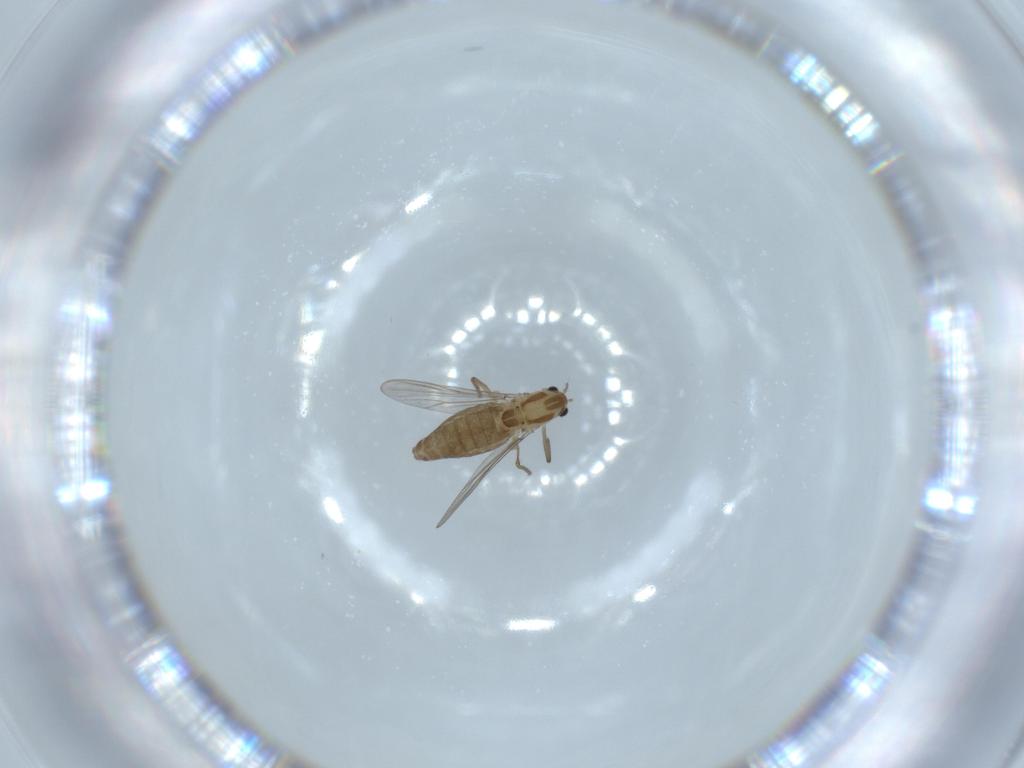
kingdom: Animalia
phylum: Arthropoda
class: Insecta
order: Diptera
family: Chironomidae
